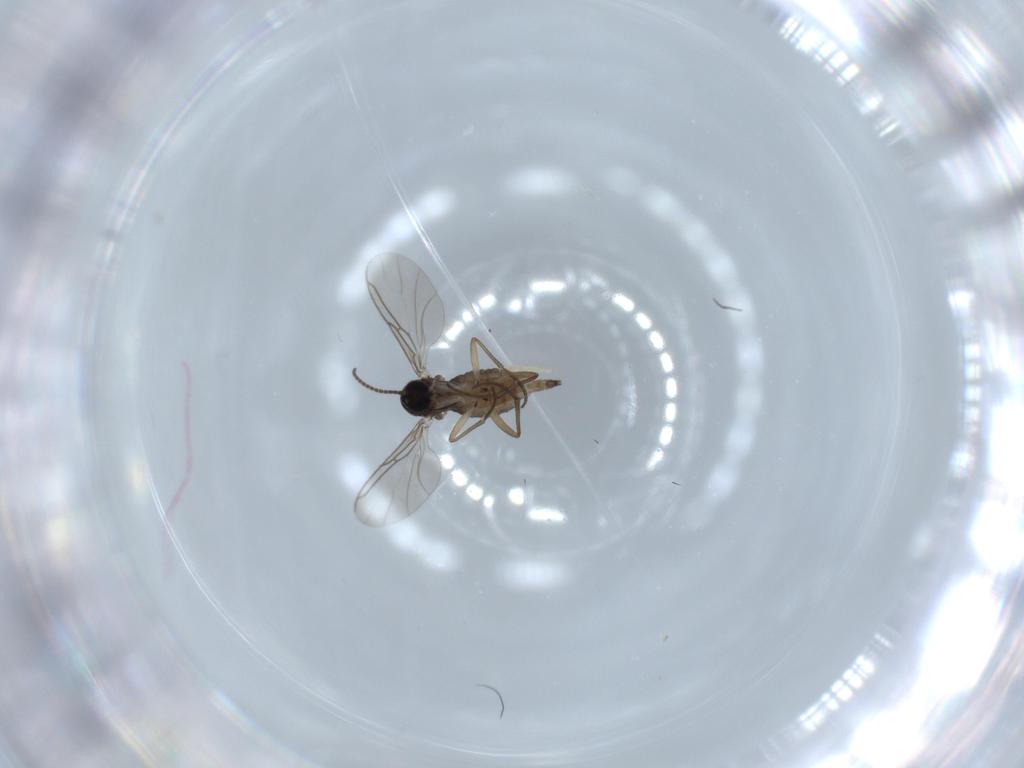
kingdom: Animalia
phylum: Arthropoda
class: Insecta
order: Diptera
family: Sciaridae
